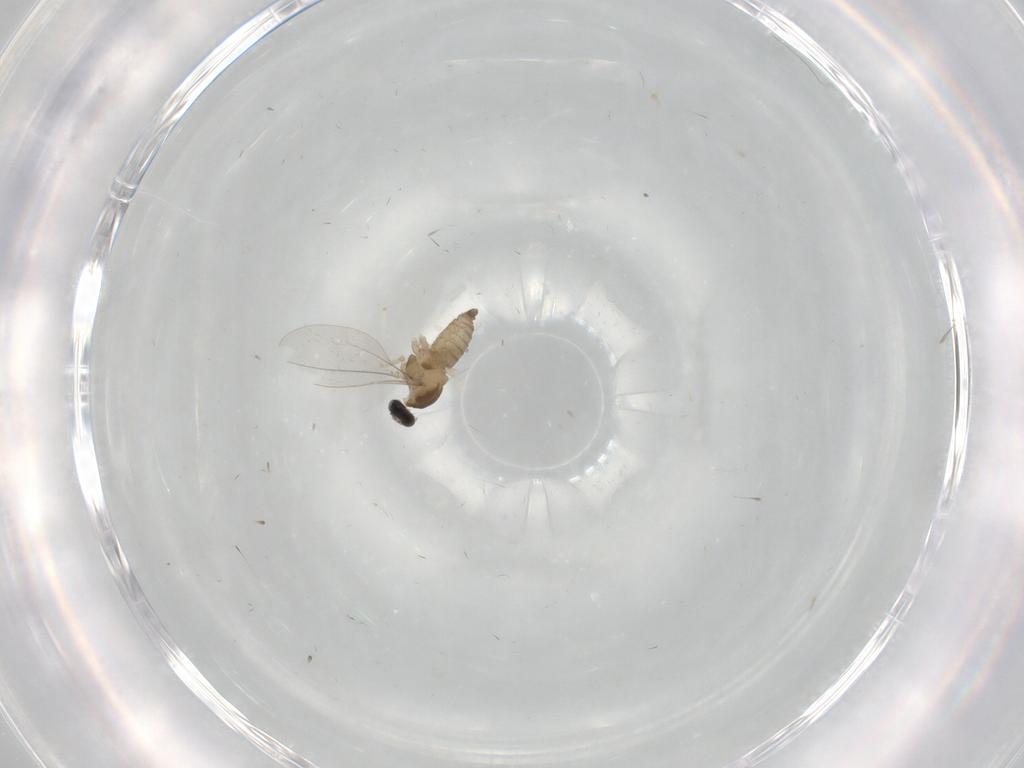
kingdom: Animalia
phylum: Arthropoda
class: Insecta
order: Diptera
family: Cecidomyiidae
